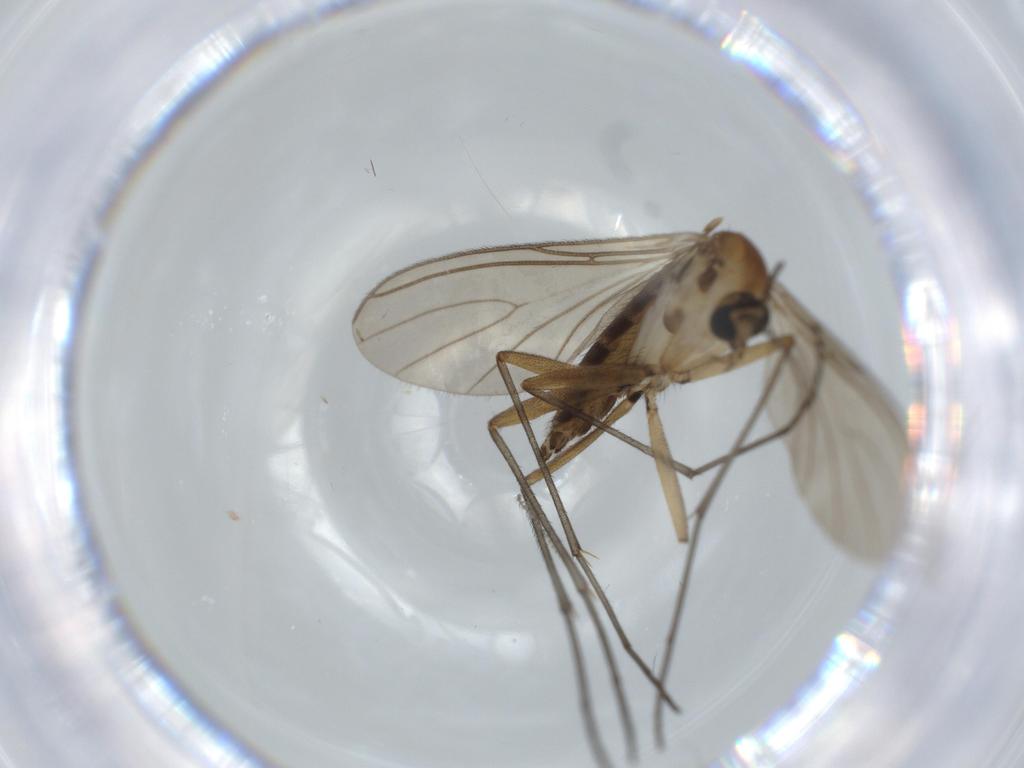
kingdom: Animalia
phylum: Arthropoda
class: Insecta
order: Diptera
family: Sciaridae
